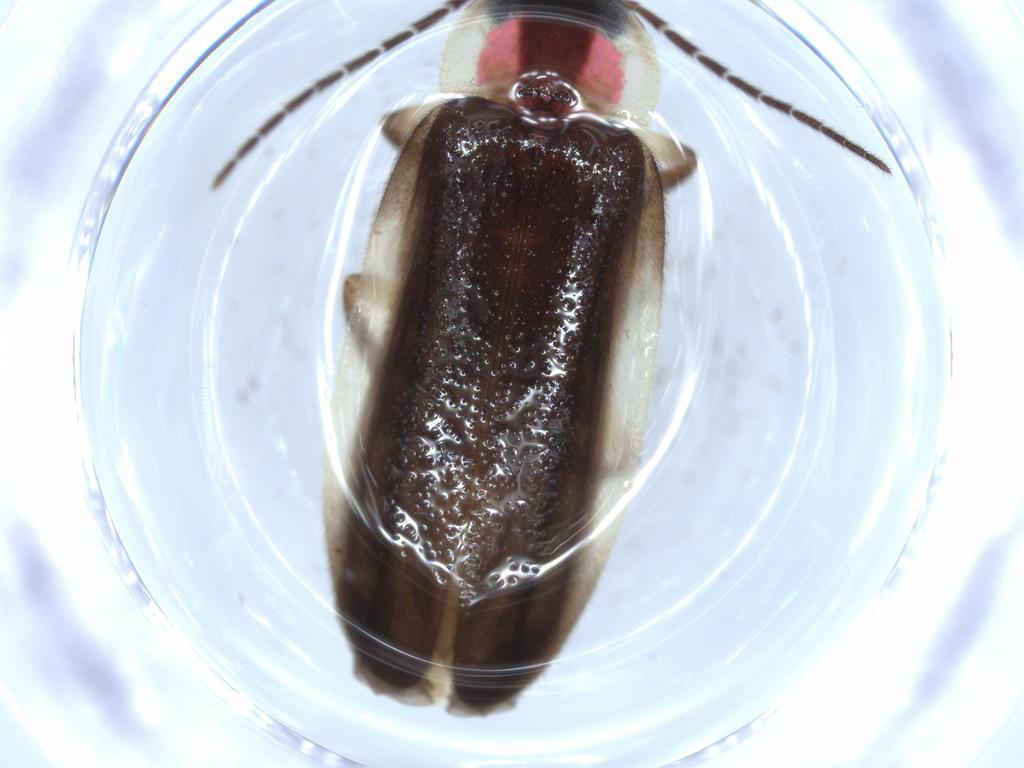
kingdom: Animalia
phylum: Arthropoda
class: Insecta
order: Coleoptera
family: Lampyridae
